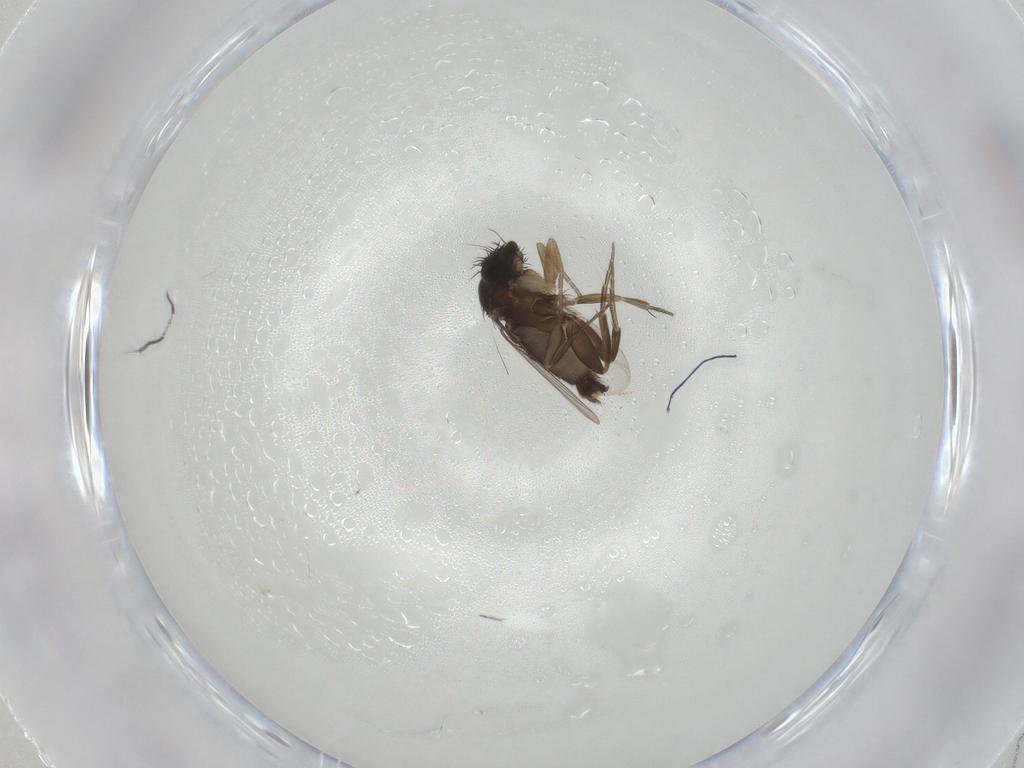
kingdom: Animalia
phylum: Arthropoda
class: Insecta
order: Diptera
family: Mycetophilidae
